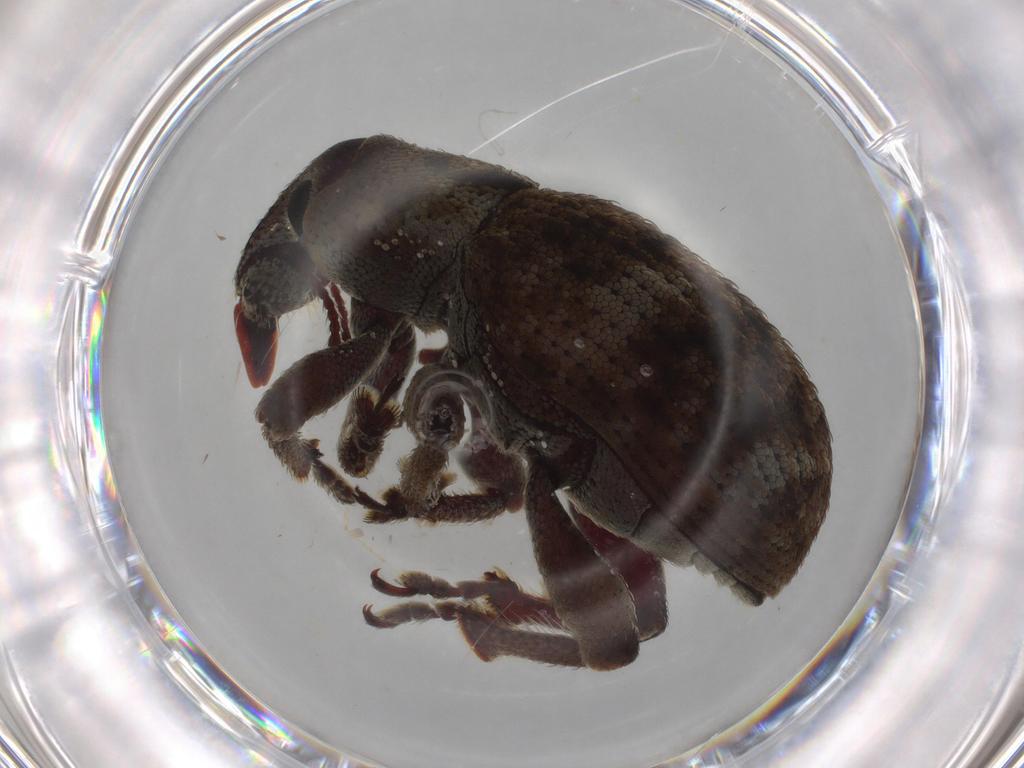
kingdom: Animalia
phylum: Arthropoda
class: Insecta
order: Coleoptera
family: Curculionidae
